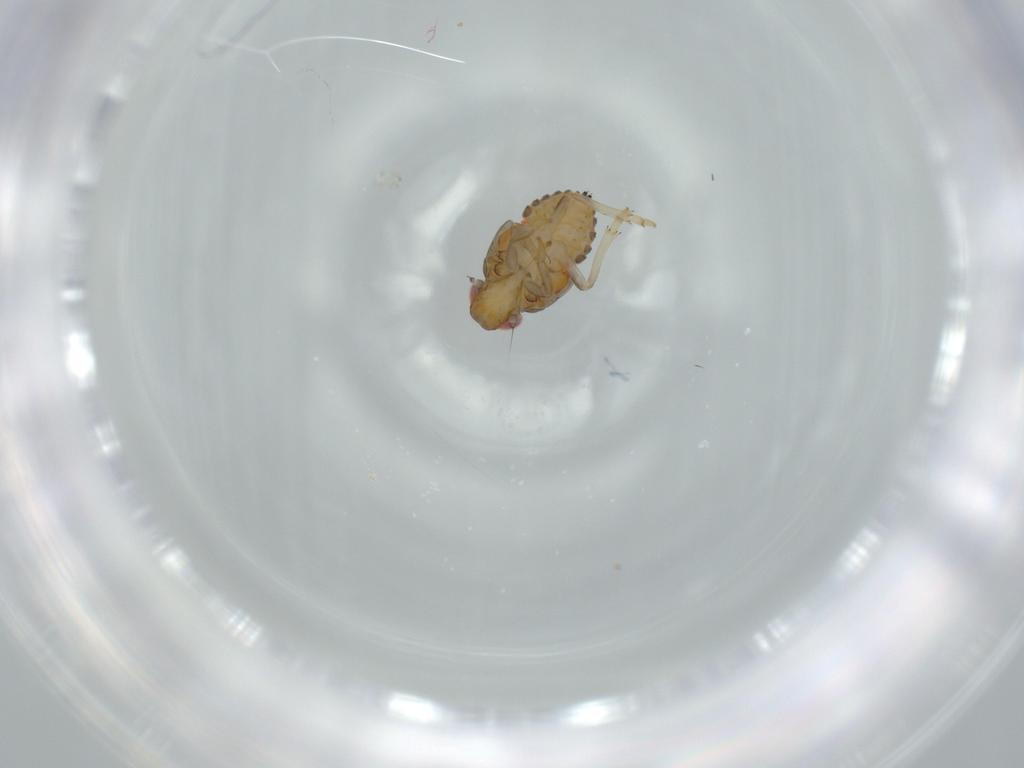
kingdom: Animalia
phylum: Arthropoda
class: Insecta
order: Hemiptera
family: Issidae
